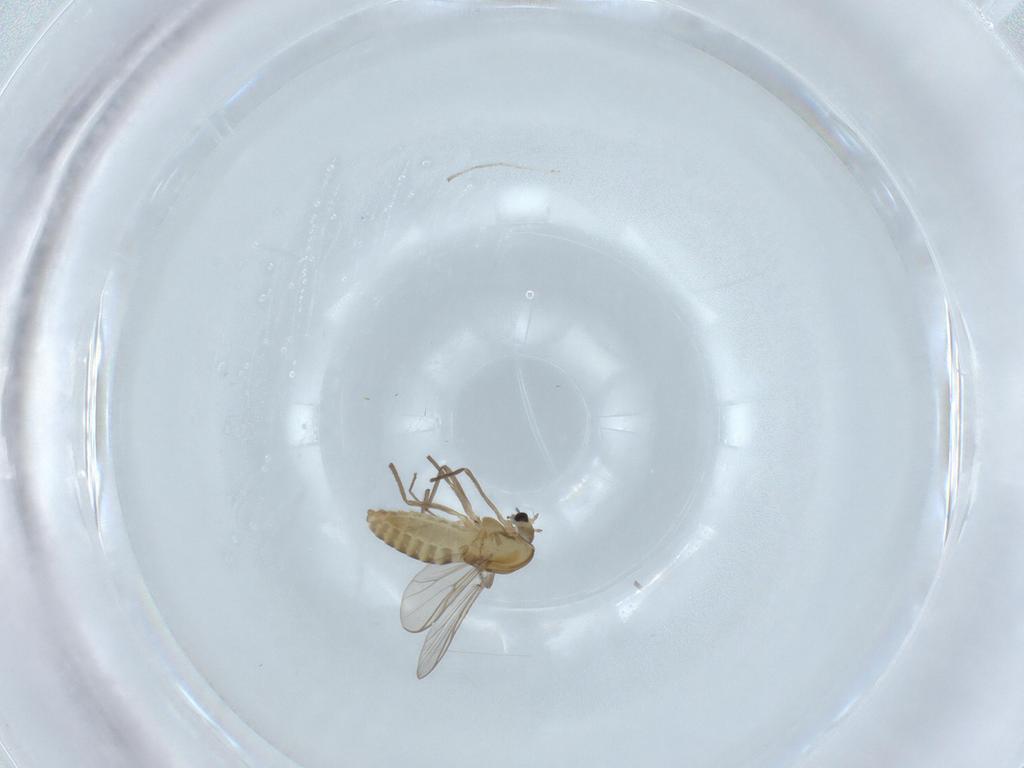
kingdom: Animalia
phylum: Arthropoda
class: Insecta
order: Diptera
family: Chironomidae
